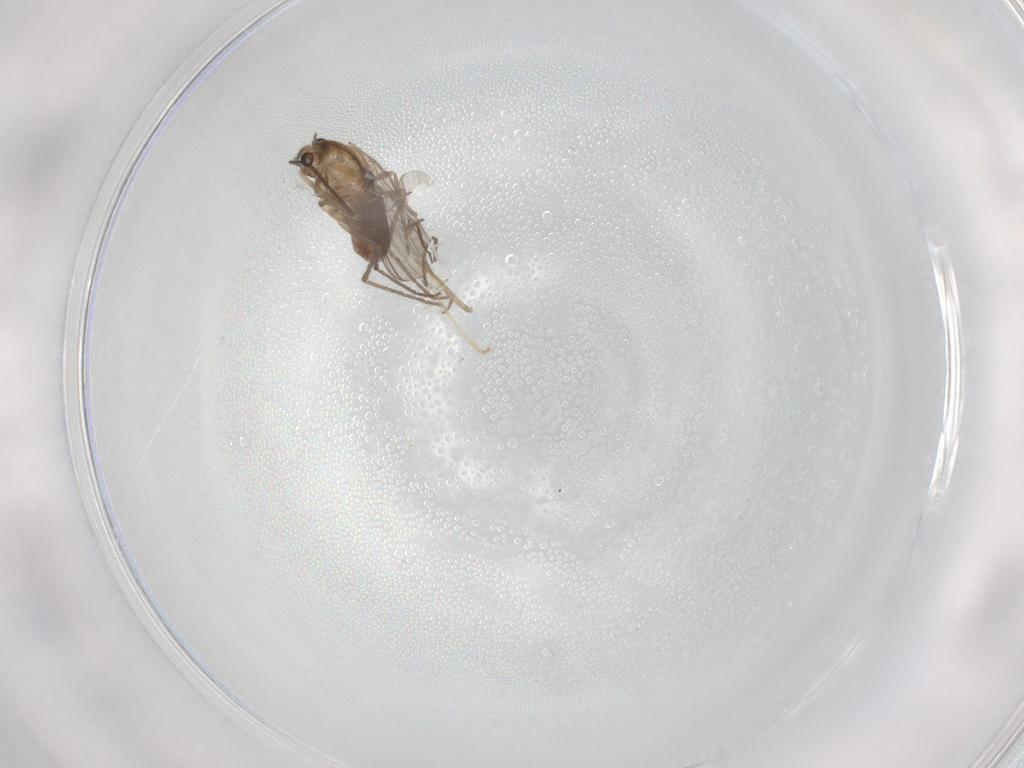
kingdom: Animalia
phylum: Arthropoda
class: Insecta
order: Diptera
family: Chironomidae
